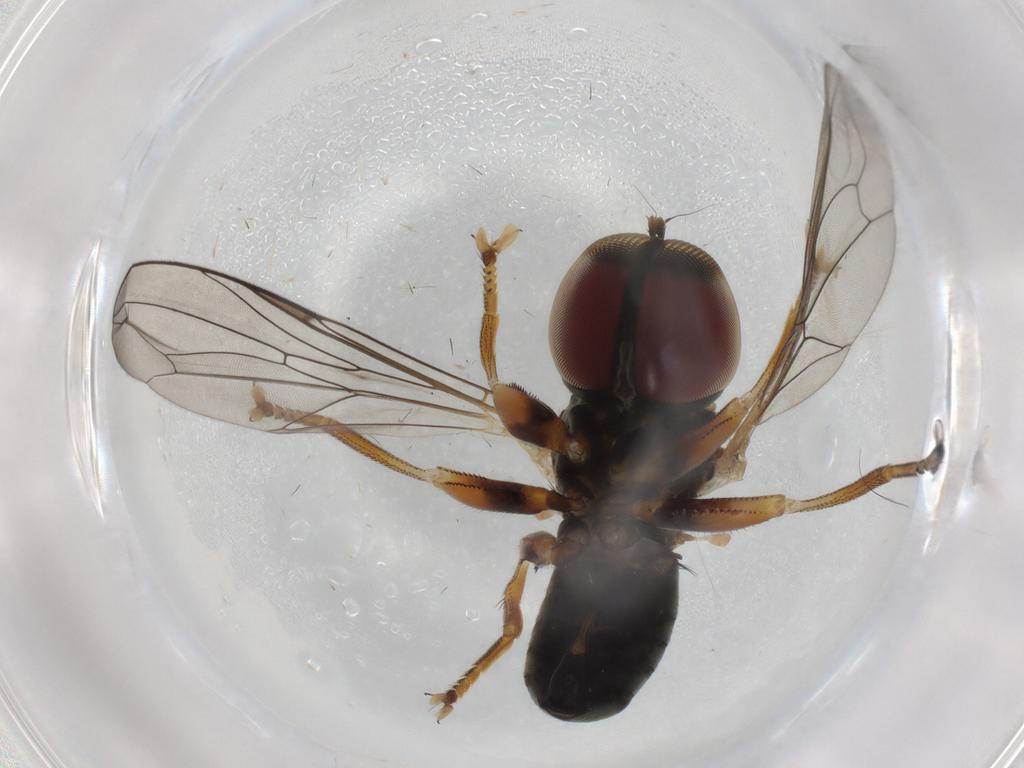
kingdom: Animalia
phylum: Arthropoda
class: Insecta
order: Diptera
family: Pipunculidae
